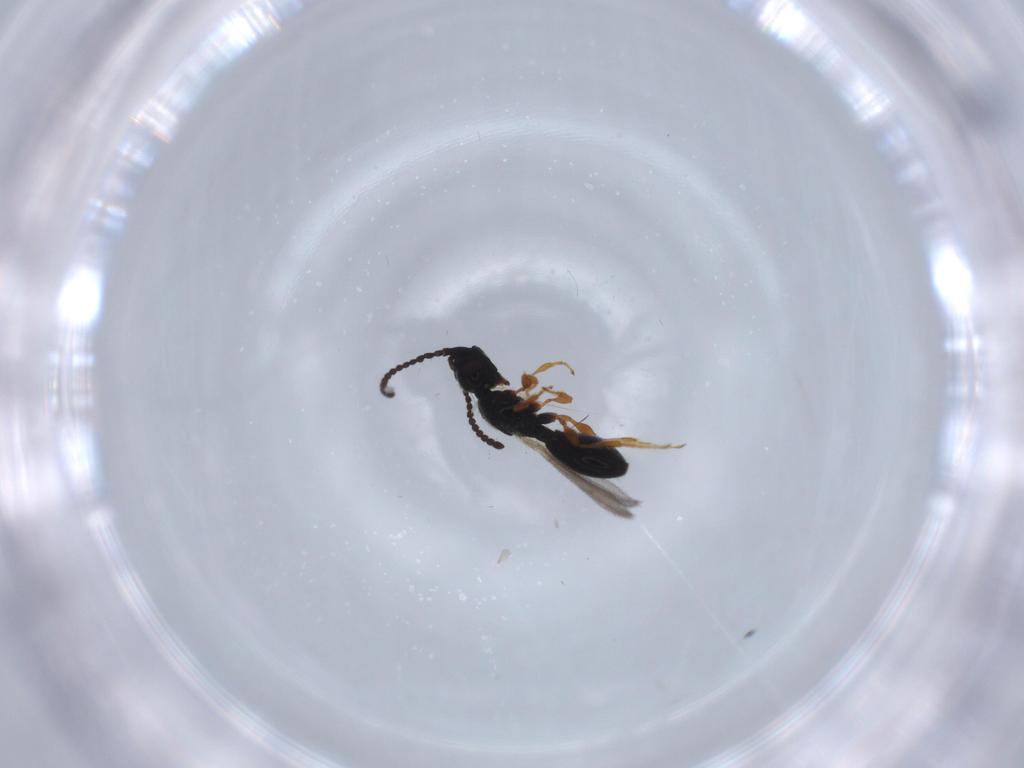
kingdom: Animalia
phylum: Arthropoda
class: Insecta
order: Hymenoptera
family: Diapriidae
